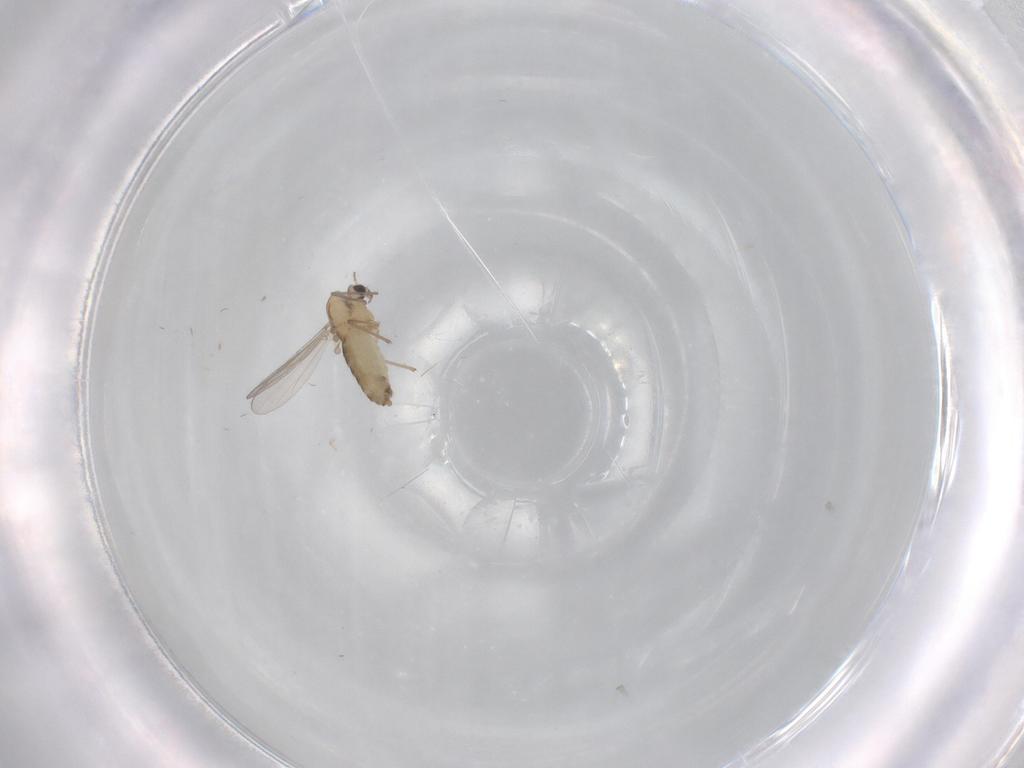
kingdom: Animalia
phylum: Arthropoda
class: Insecta
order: Diptera
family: Chironomidae
